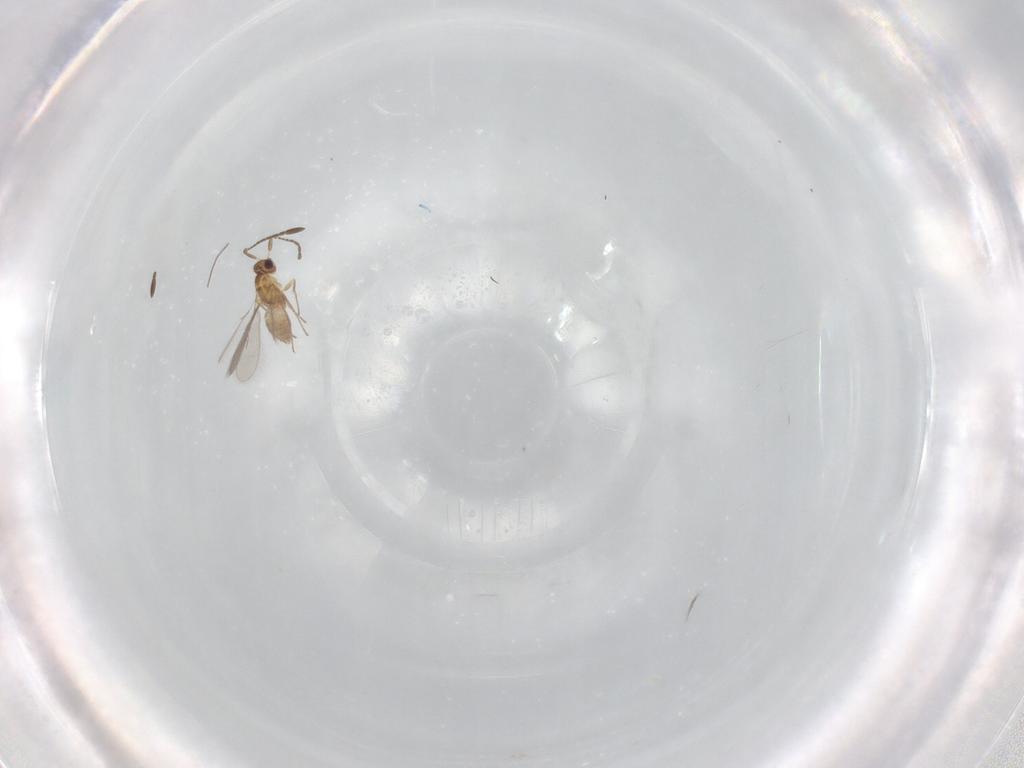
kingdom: Animalia
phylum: Arthropoda
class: Insecta
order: Hymenoptera
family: Mymaridae
